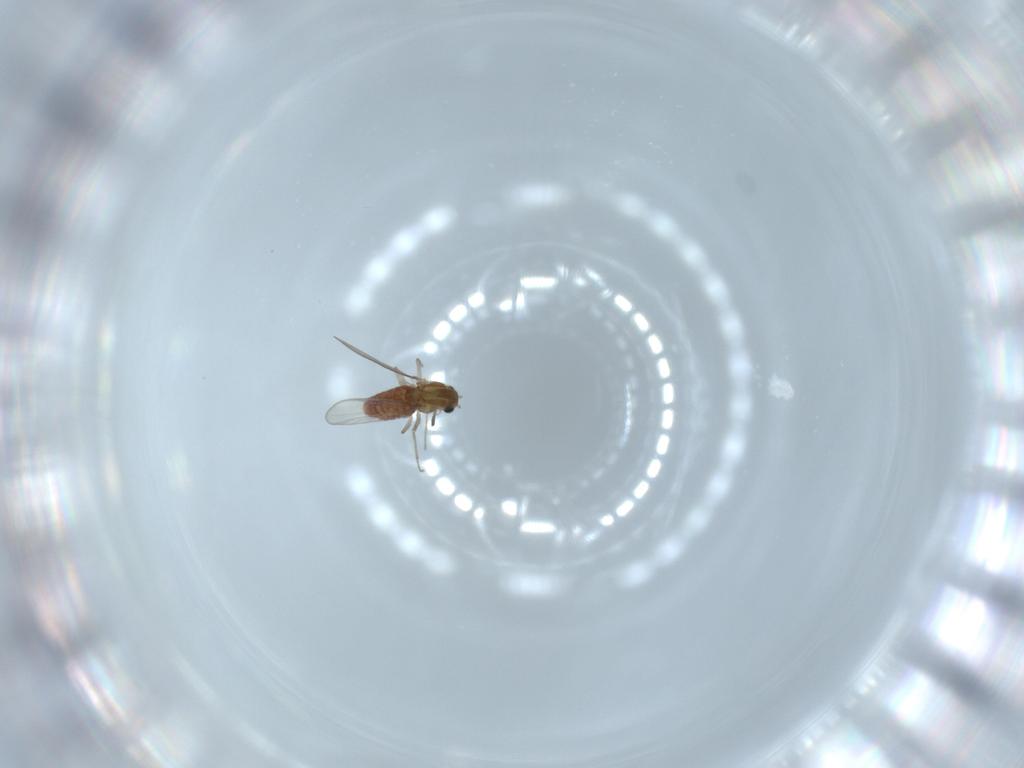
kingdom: Animalia
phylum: Arthropoda
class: Insecta
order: Diptera
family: Chironomidae
